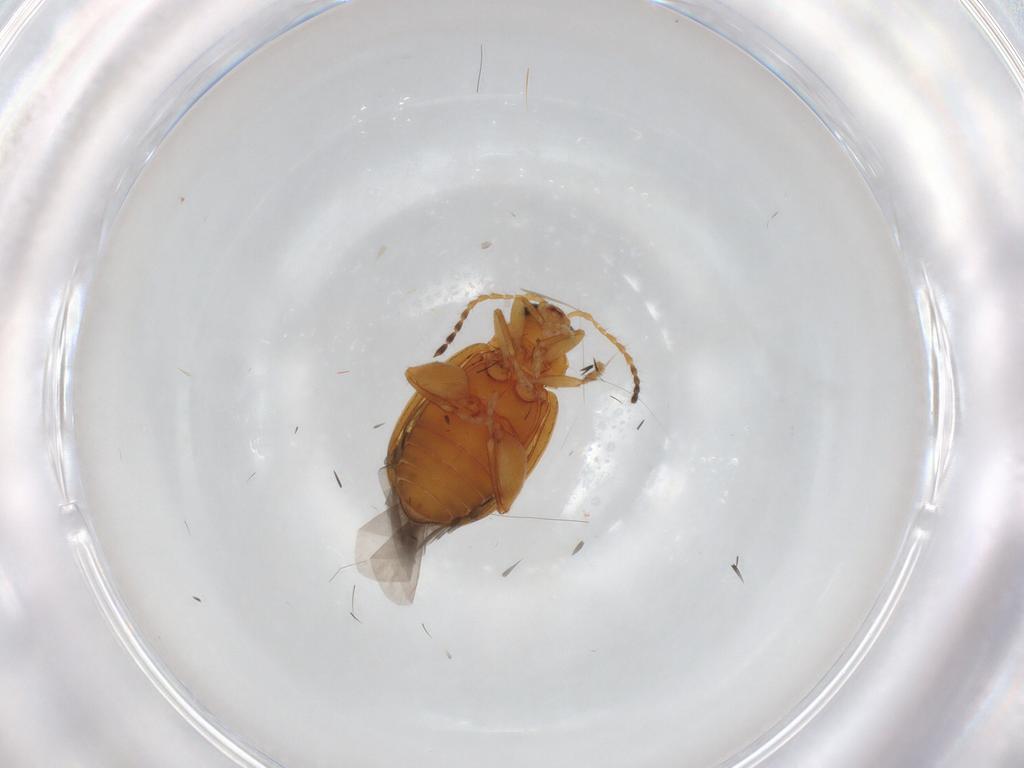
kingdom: Animalia
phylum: Arthropoda
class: Insecta
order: Coleoptera
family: Chrysomelidae
